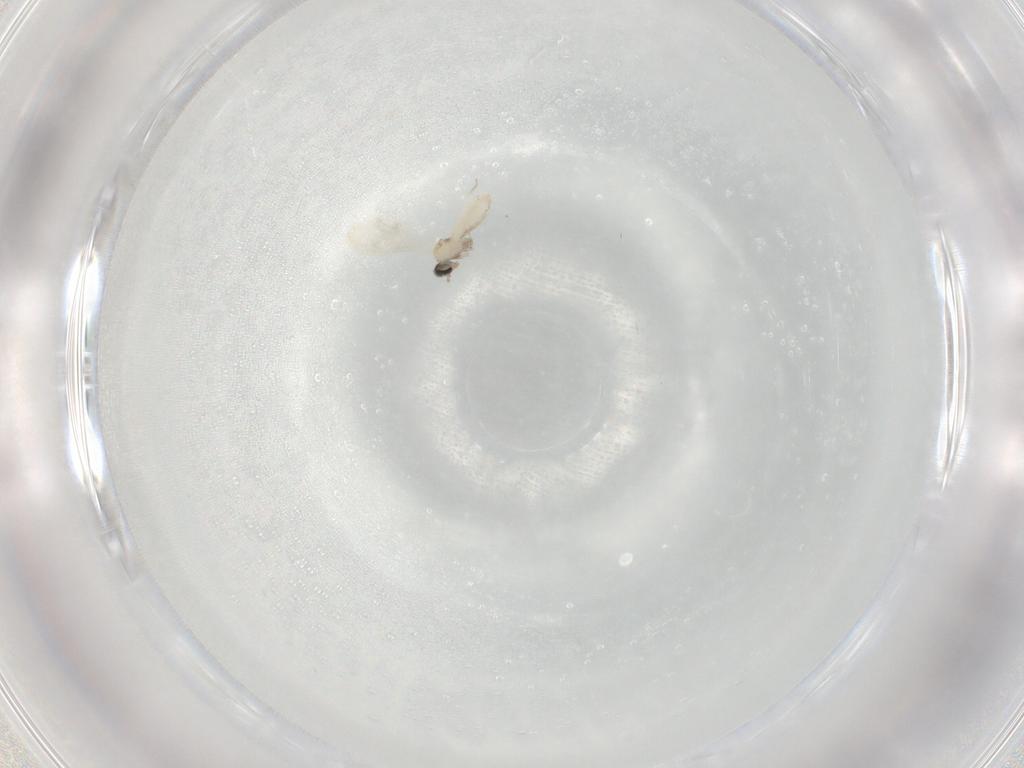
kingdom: Animalia
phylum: Arthropoda
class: Insecta
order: Diptera
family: Cecidomyiidae
